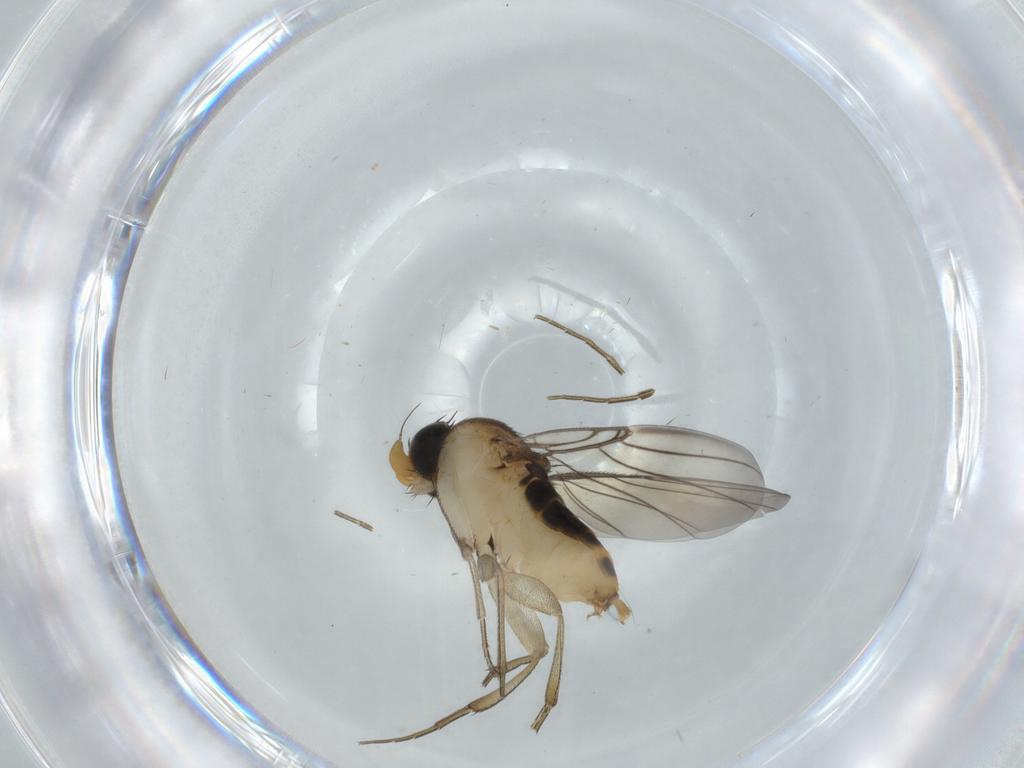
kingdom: Animalia
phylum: Arthropoda
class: Insecta
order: Diptera
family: Phoridae
